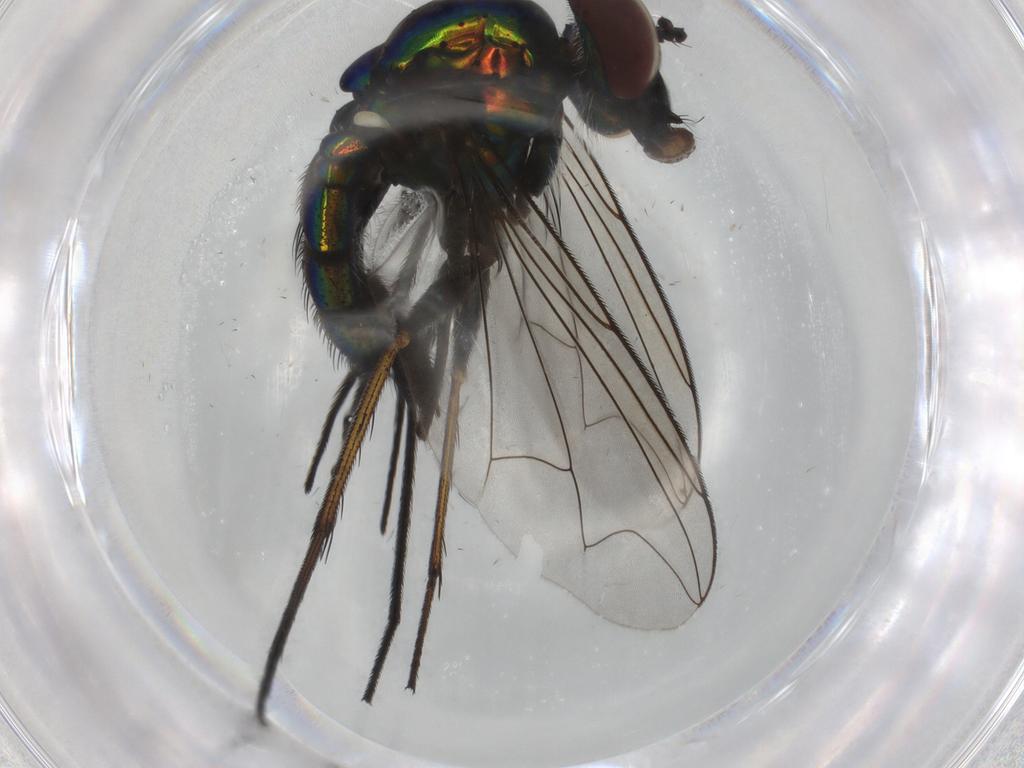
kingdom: Animalia
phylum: Arthropoda
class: Insecta
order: Diptera
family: Dolichopodidae
